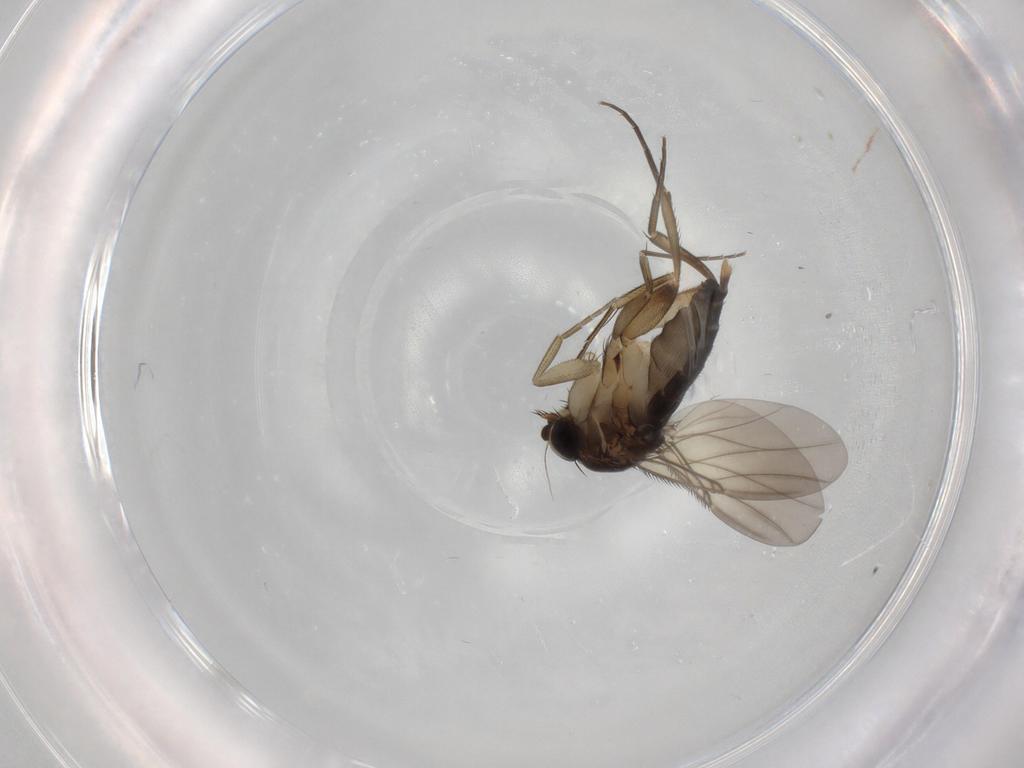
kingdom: Animalia
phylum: Arthropoda
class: Insecta
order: Diptera
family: Phoridae
